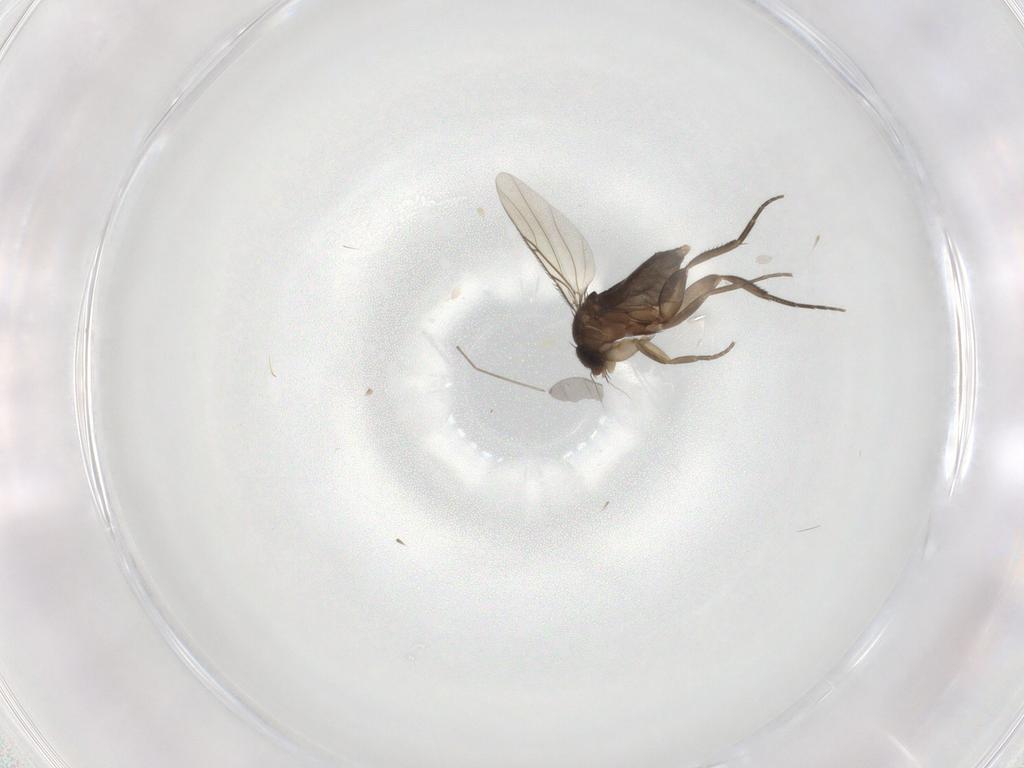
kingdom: Animalia
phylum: Arthropoda
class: Insecta
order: Diptera
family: Phoridae
